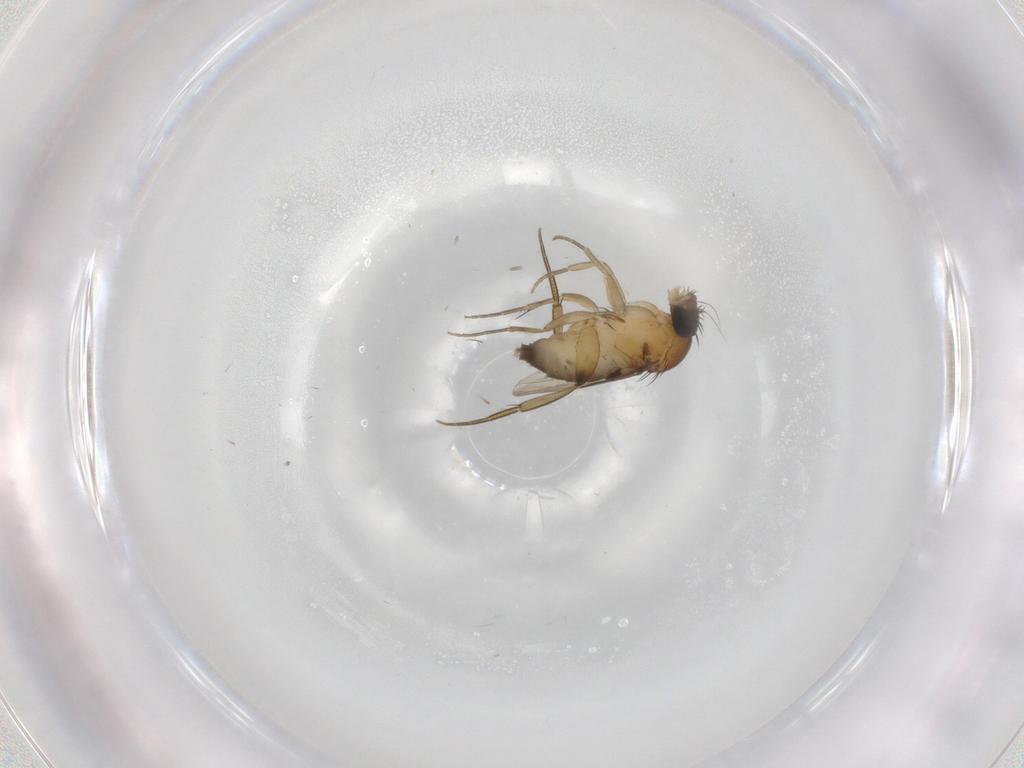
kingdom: Animalia
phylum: Arthropoda
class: Insecta
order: Diptera
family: Phoridae
